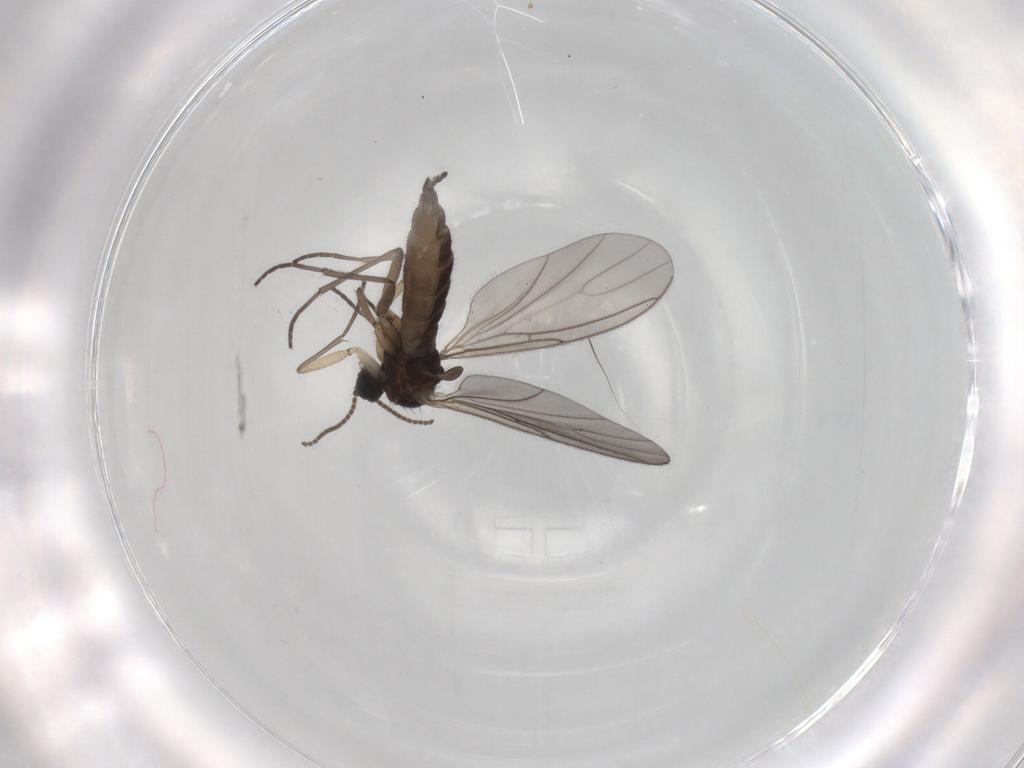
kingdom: Animalia
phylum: Arthropoda
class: Insecta
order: Diptera
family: Sciaridae
